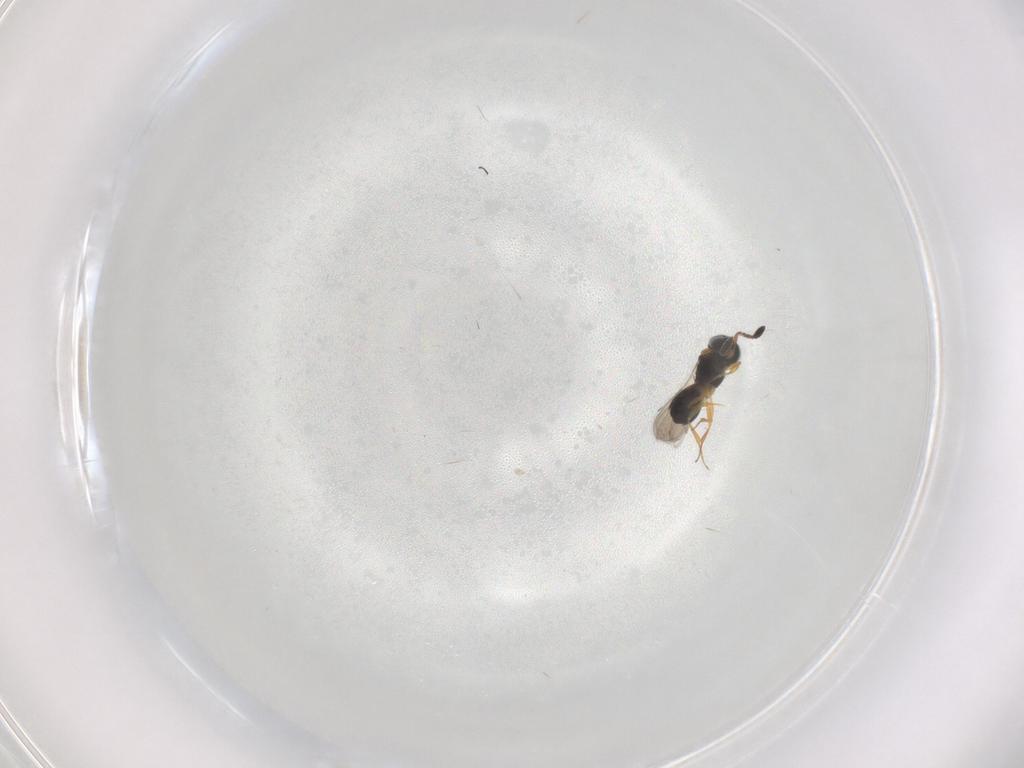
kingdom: Animalia
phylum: Arthropoda
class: Insecta
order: Hymenoptera
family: Scelionidae
